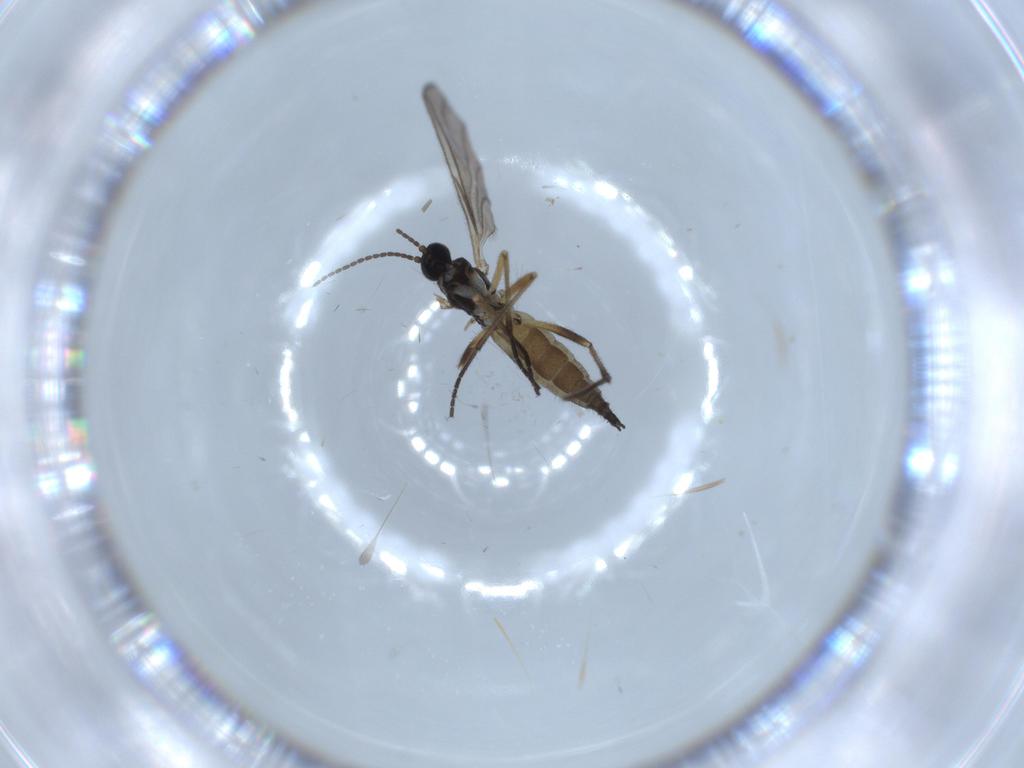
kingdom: Animalia
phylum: Arthropoda
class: Insecta
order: Diptera
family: Sciaridae
